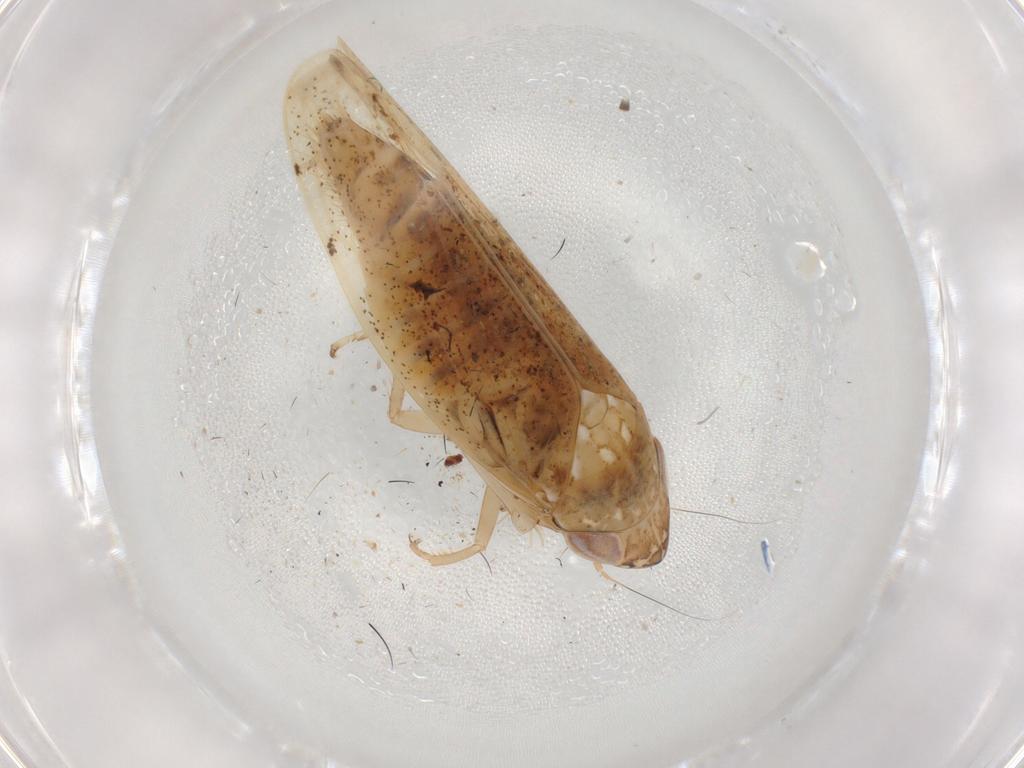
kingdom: Animalia
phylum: Arthropoda
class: Insecta
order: Hemiptera
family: Cicadellidae
